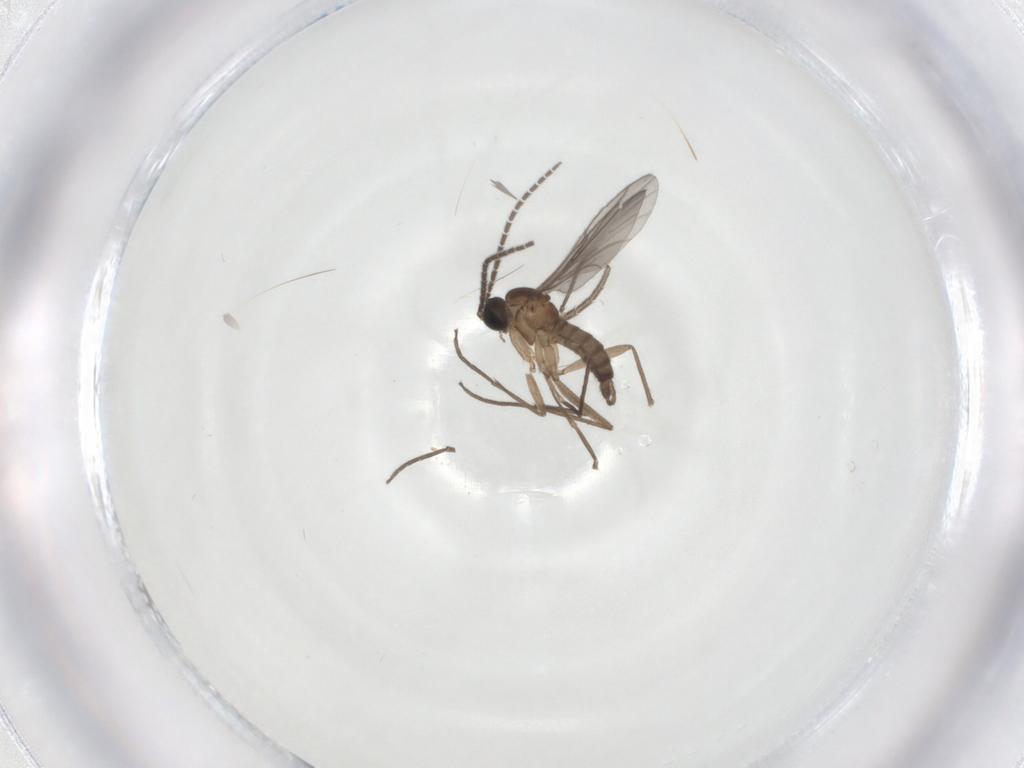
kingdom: Animalia
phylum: Arthropoda
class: Insecta
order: Diptera
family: Mycetophilidae
